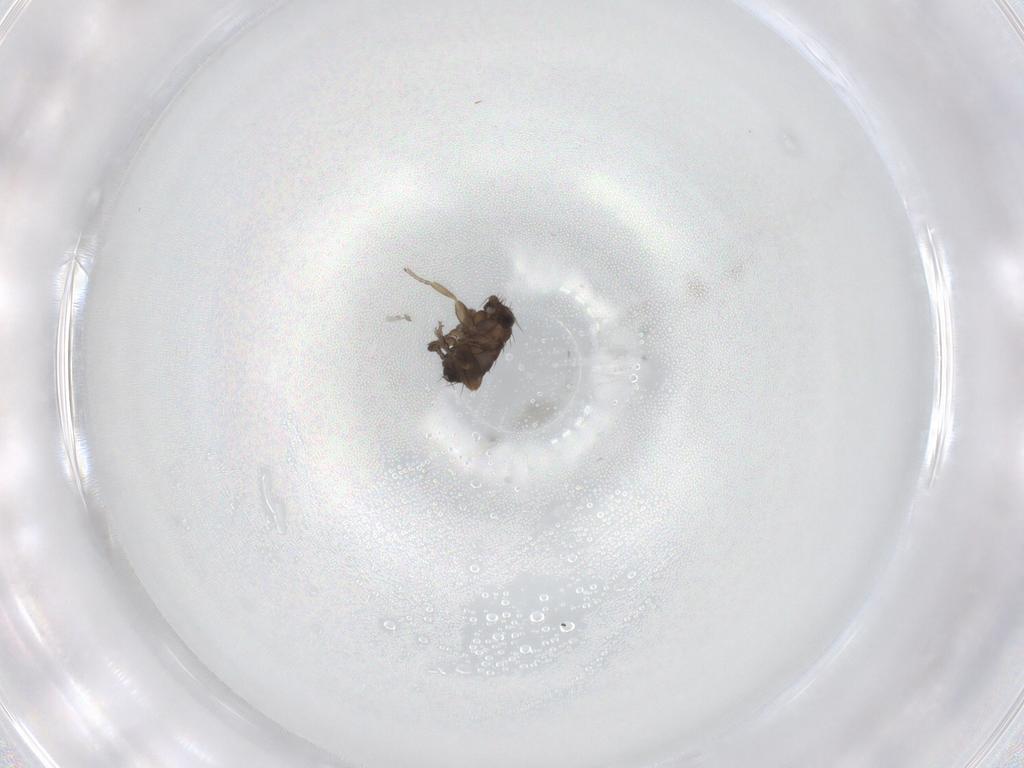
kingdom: Animalia
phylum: Arthropoda
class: Insecta
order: Diptera
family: Phoridae
